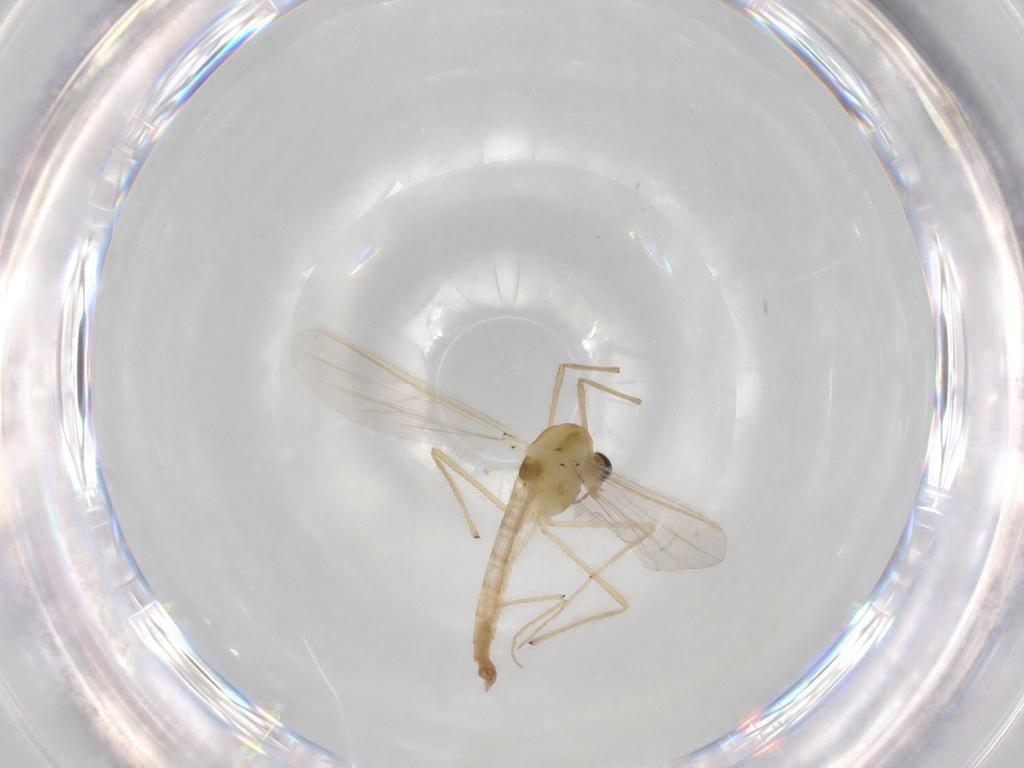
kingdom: Animalia
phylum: Arthropoda
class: Insecta
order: Diptera
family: Chironomidae
